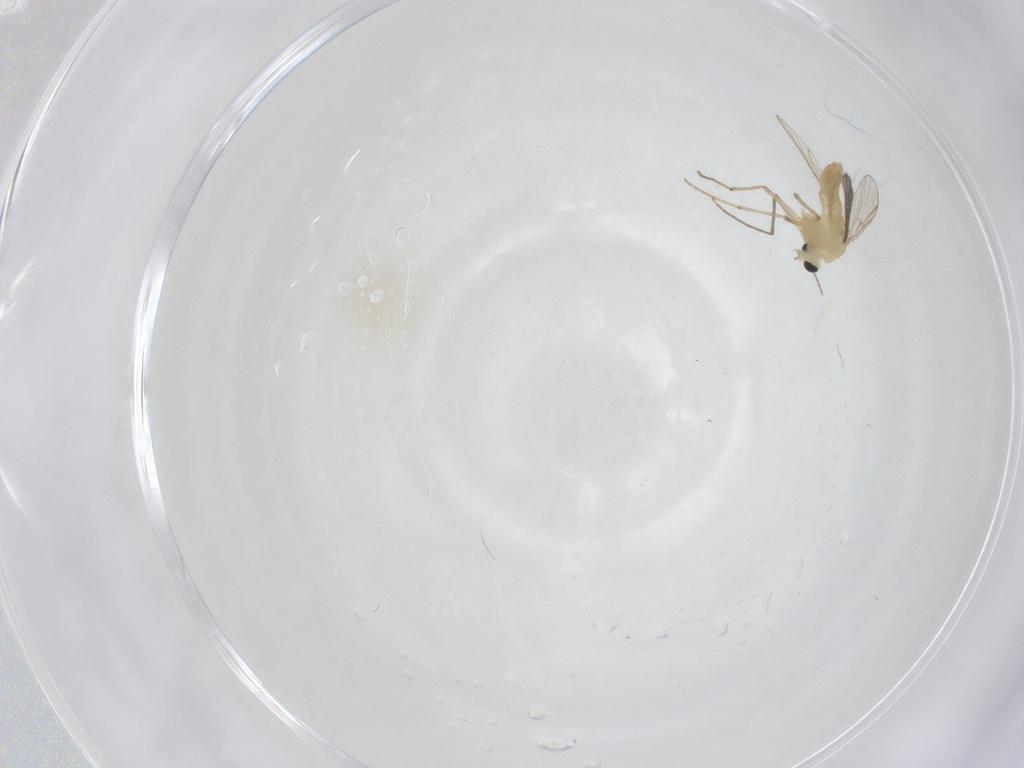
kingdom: Animalia
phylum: Arthropoda
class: Insecta
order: Diptera
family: Chironomidae
